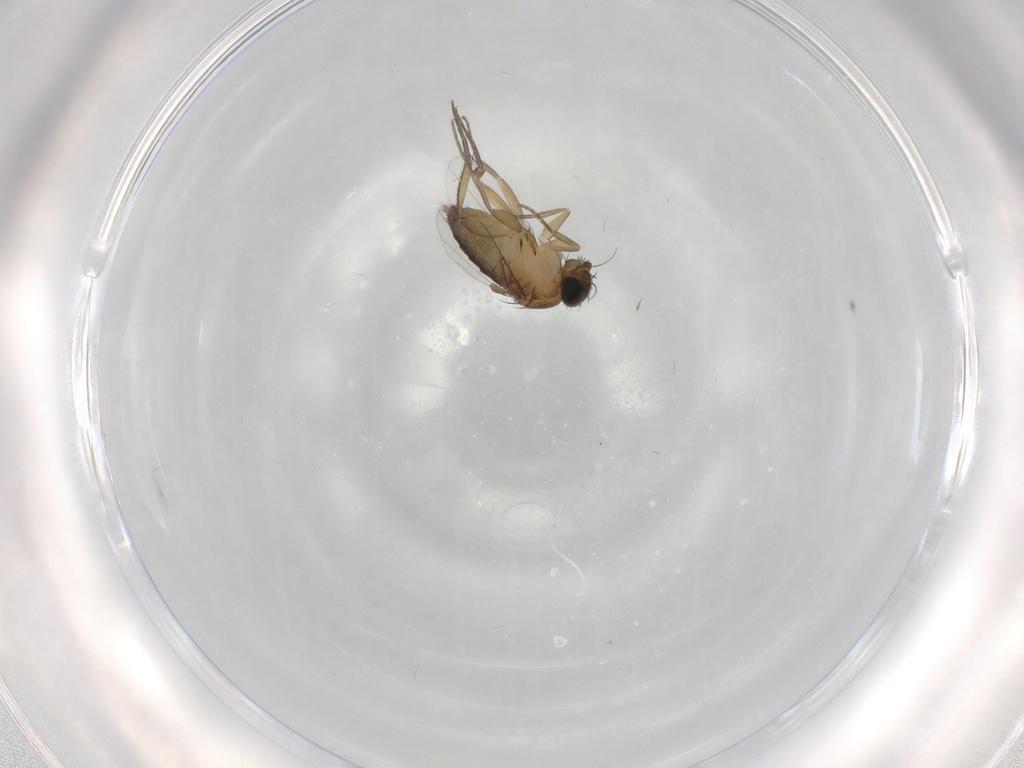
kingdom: Animalia
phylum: Arthropoda
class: Insecta
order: Diptera
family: Phoridae
